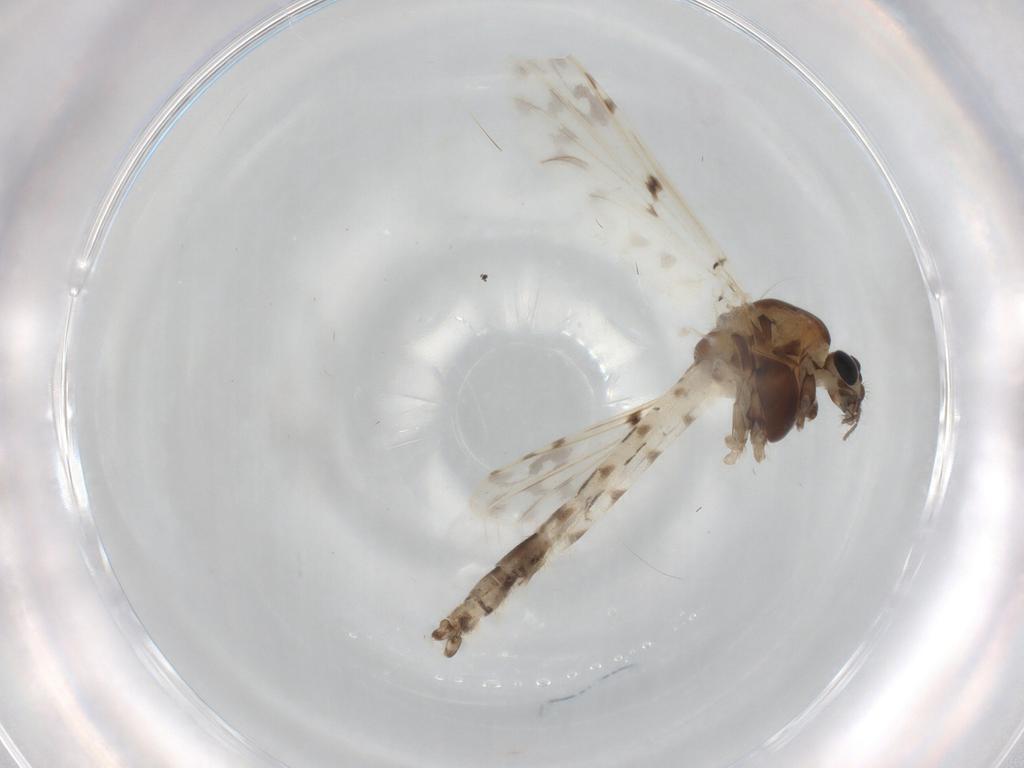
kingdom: Animalia
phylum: Arthropoda
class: Insecta
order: Diptera
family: Chironomidae
